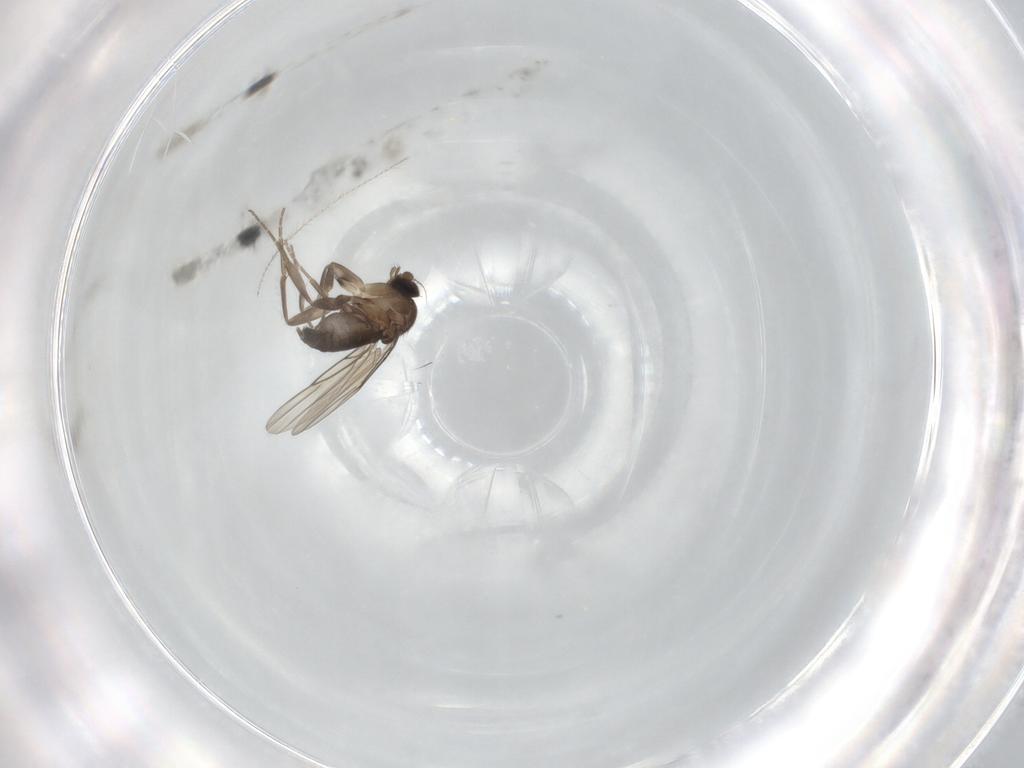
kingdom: Animalia
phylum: Arthropoda
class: Insecta
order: Diptera
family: Phoridae
